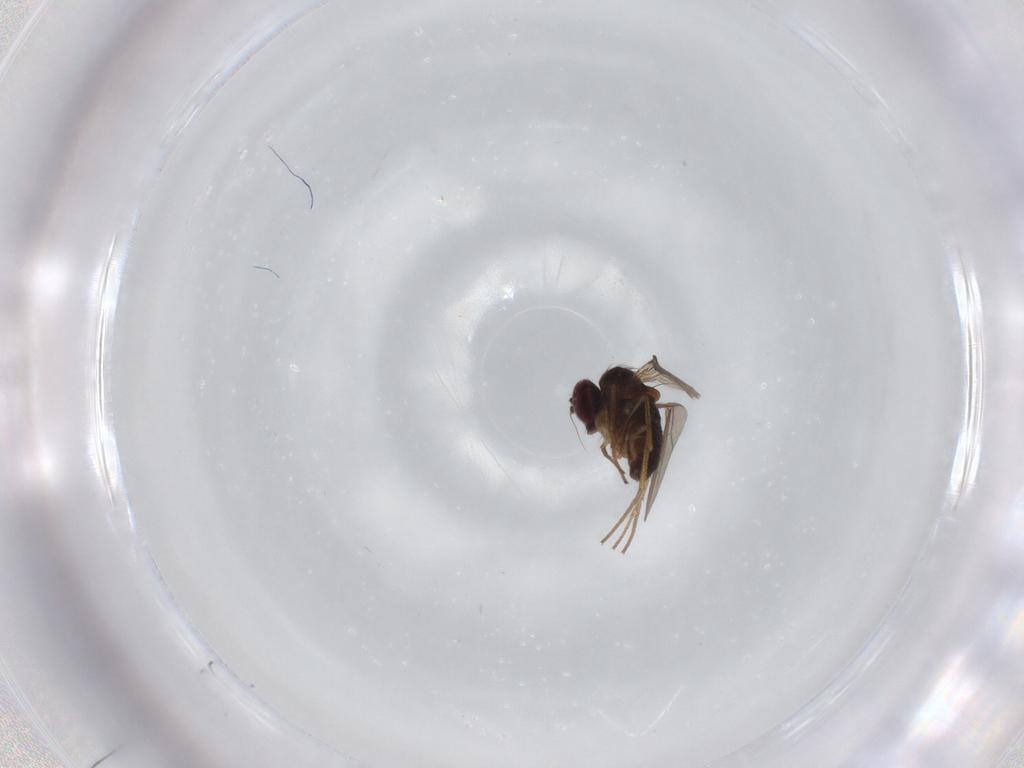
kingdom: Animalia
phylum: Arthropoda
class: Insecta
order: Diptera
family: Dolichopodidae
